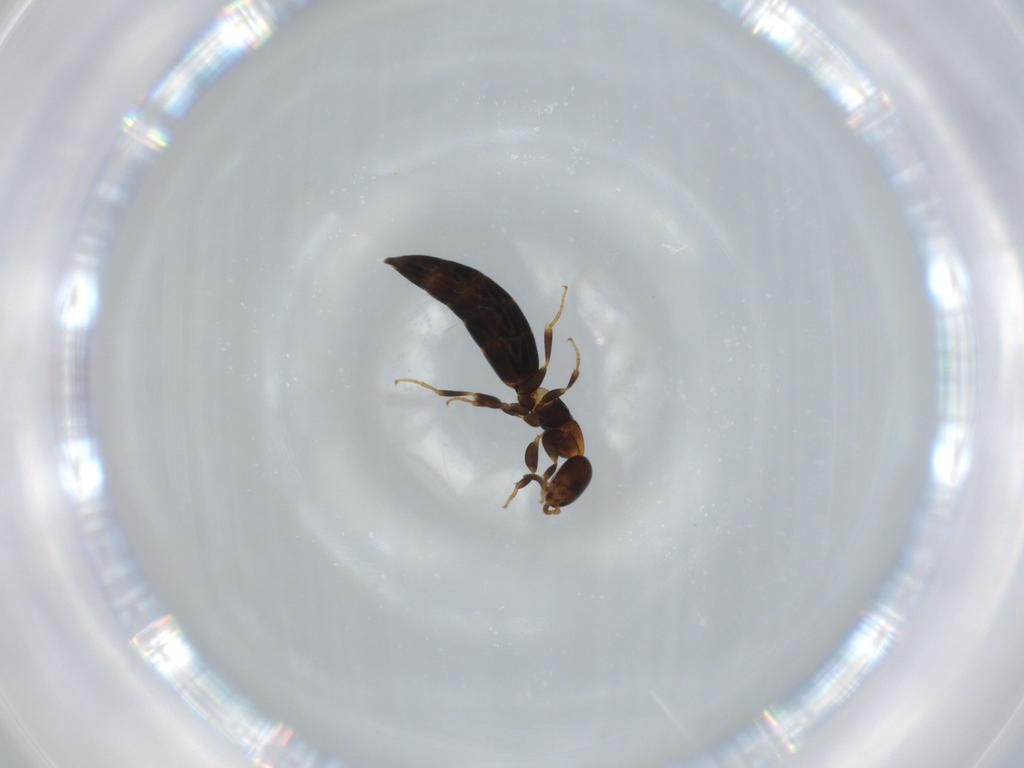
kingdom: Animalia
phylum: Arthropoda
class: Insecta
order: Hymenoptera
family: Bethylidae
